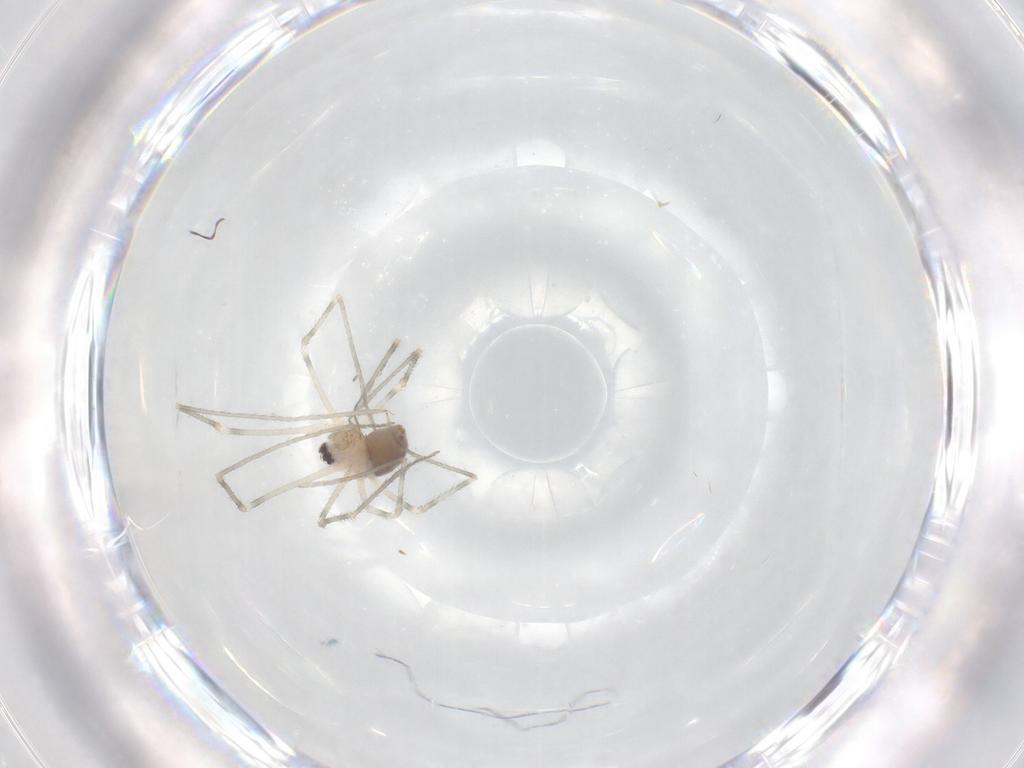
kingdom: Animalia
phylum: Arthropoda
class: Arachnida
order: Araneae
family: Pholcidae
